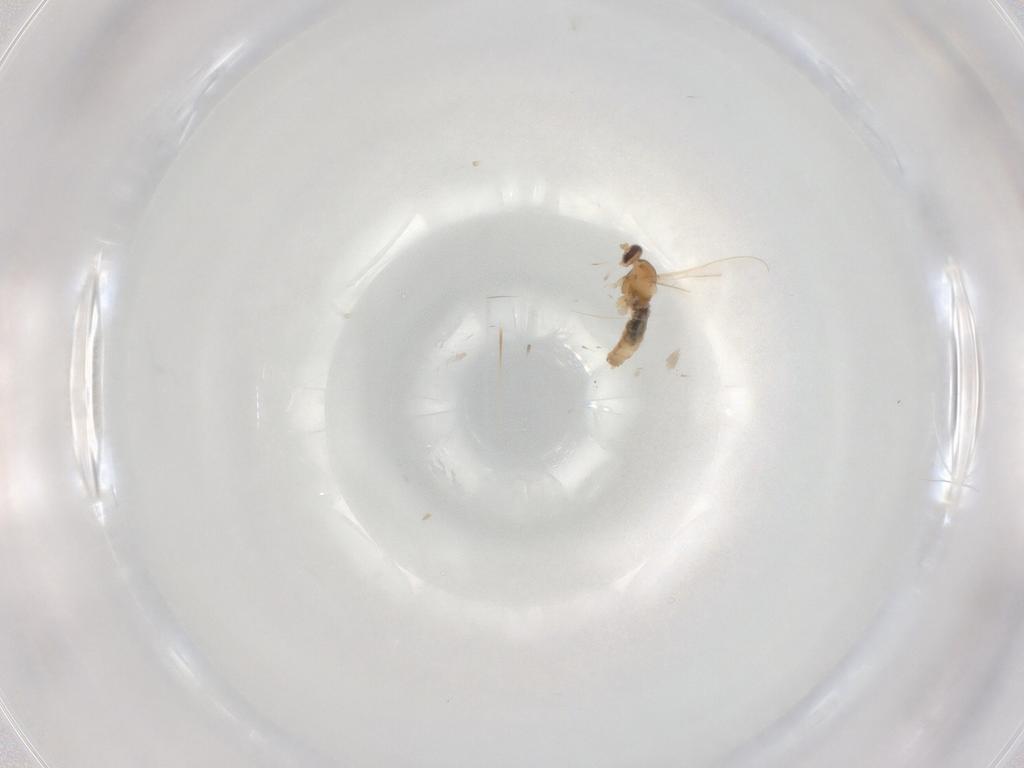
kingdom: Animalia
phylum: Arthropoda
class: Insecta
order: Diptera
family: Cecidomyiidae
